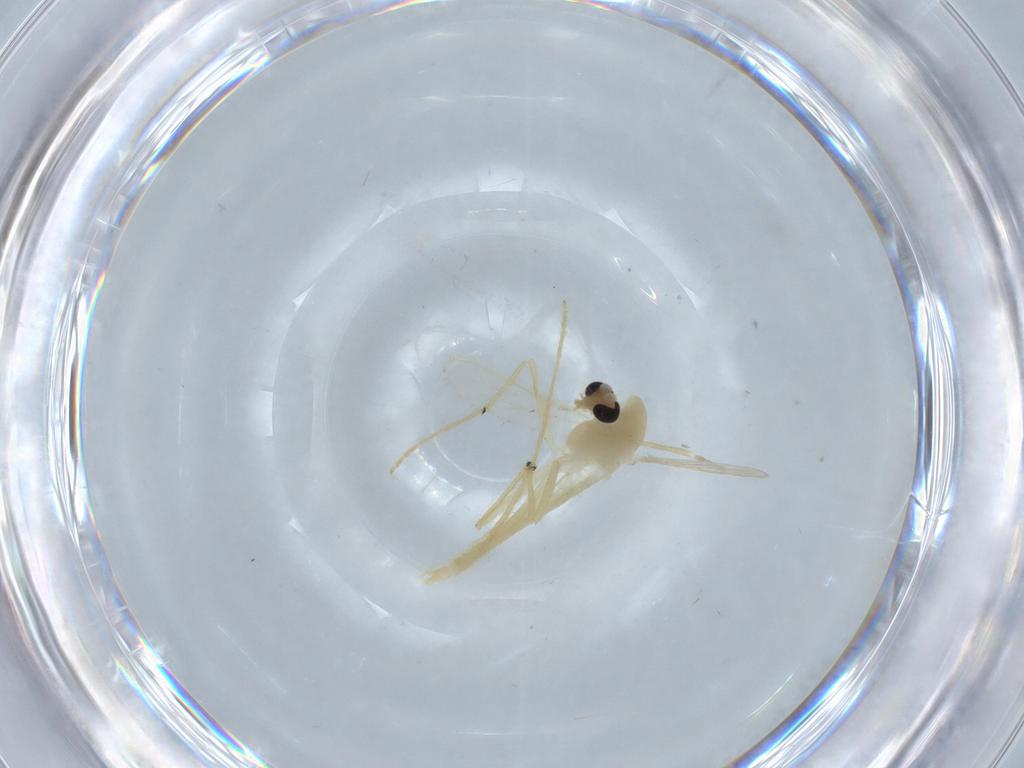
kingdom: Animalia
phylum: Arthropoda
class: Insecta
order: Diptera
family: Chironomidae
